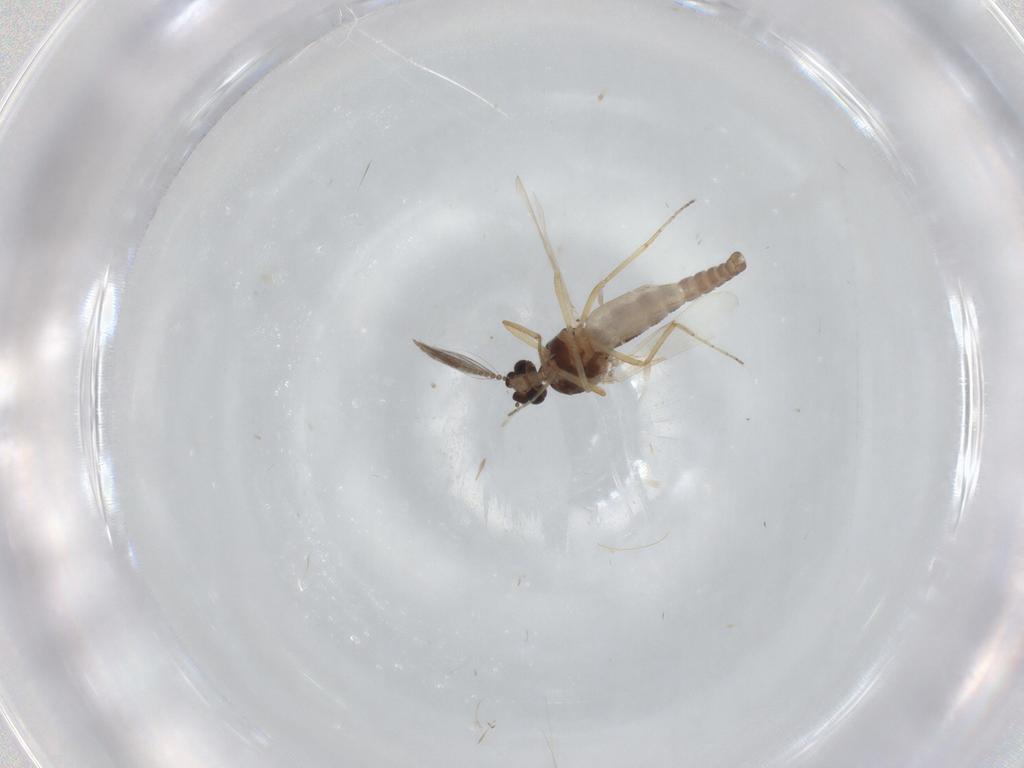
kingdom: Animalia
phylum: Arthropoda
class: Insecta
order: Diptera
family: Ceratopogonidae
